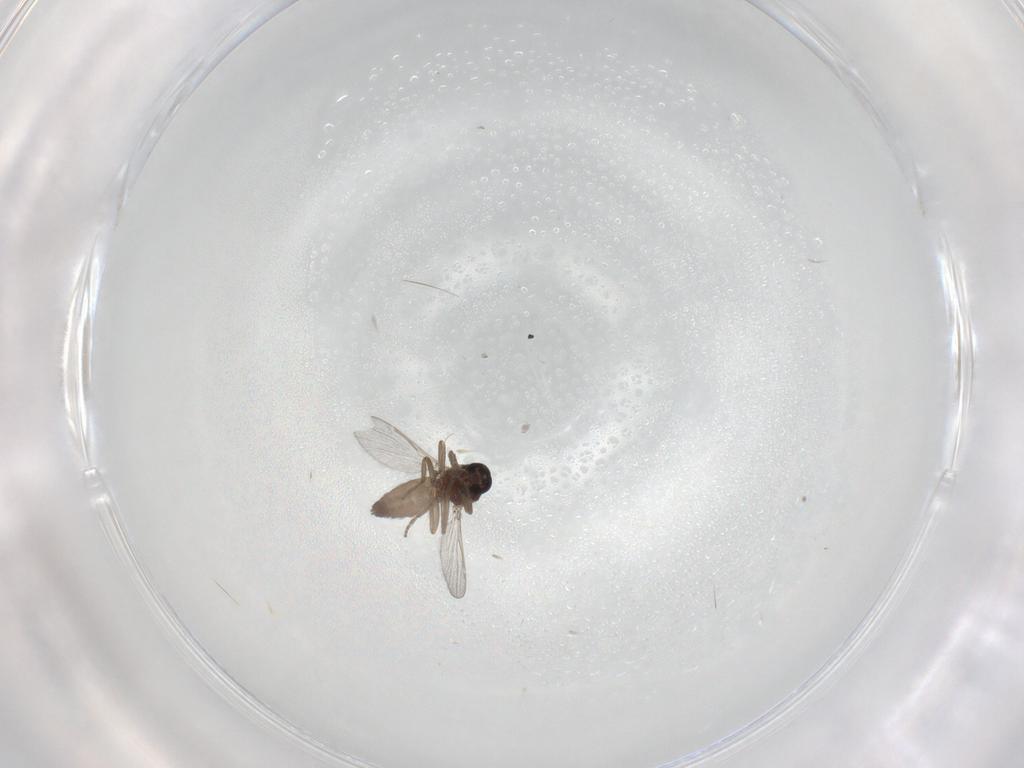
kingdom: Animalia
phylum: Arthropoda
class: Insecta
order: Diptera
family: Ceratopogonidae
